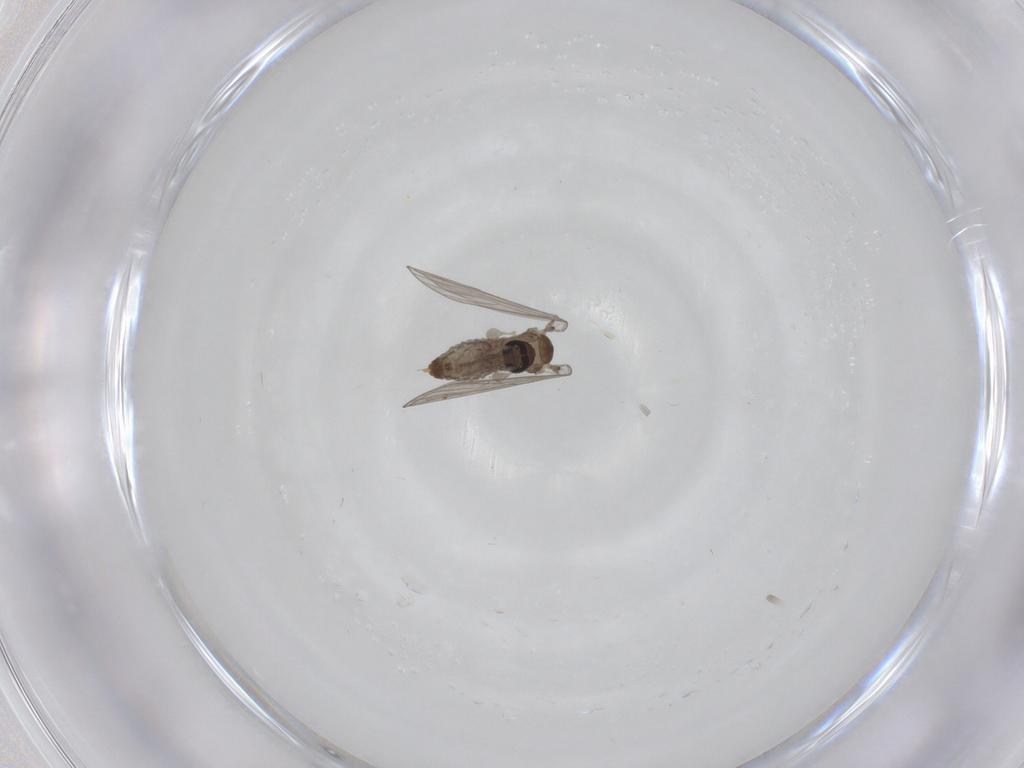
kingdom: Animalia
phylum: Arthropoda
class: Insecta
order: Diptera
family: Psychodidae
